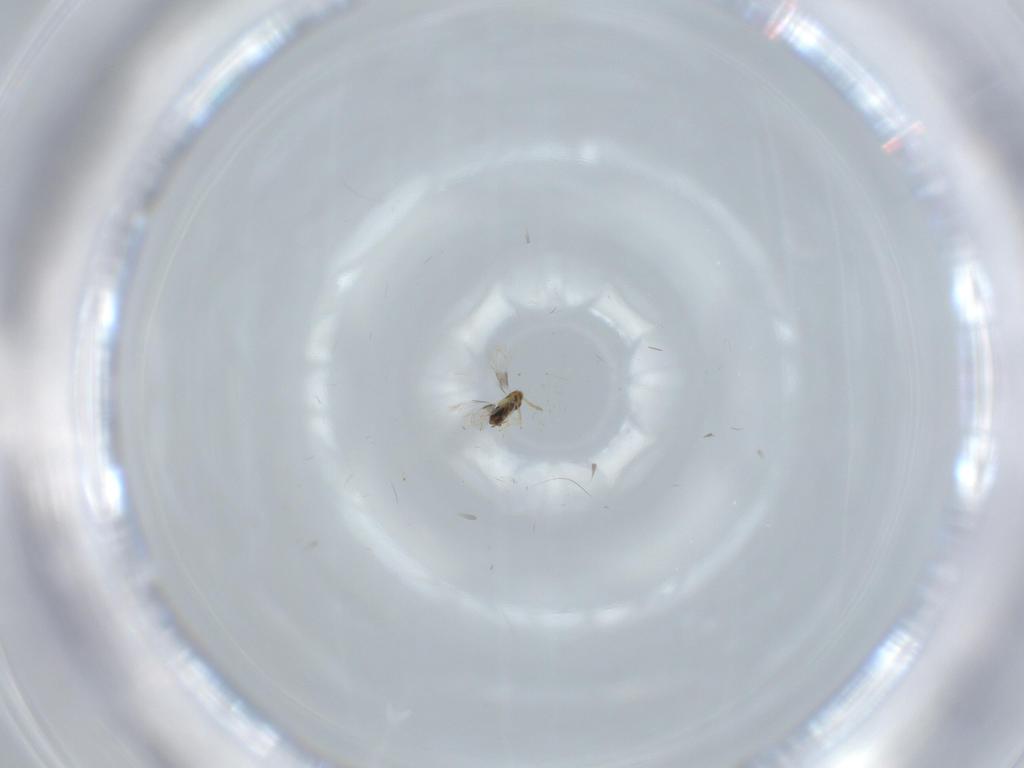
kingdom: Animalia
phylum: Arthropoda
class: Insecta
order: Hymenoptera
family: Aphelinidae
